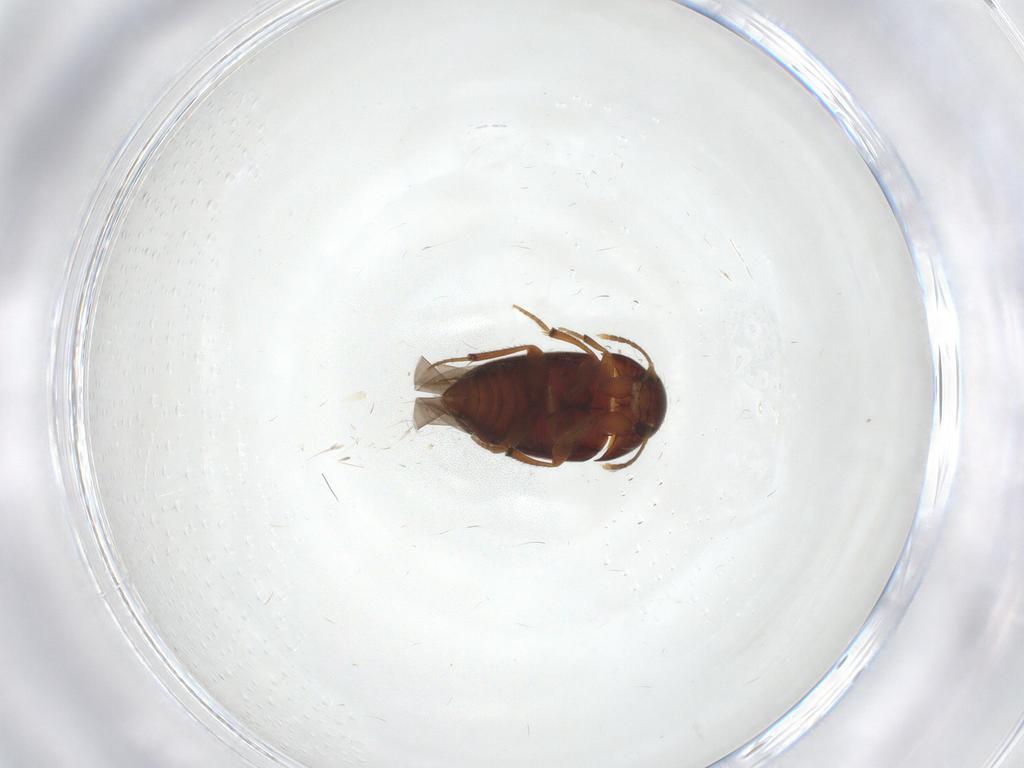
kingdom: Animalia
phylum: Arthropoda
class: Insecta
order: Coleoptera
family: Leiodidae
